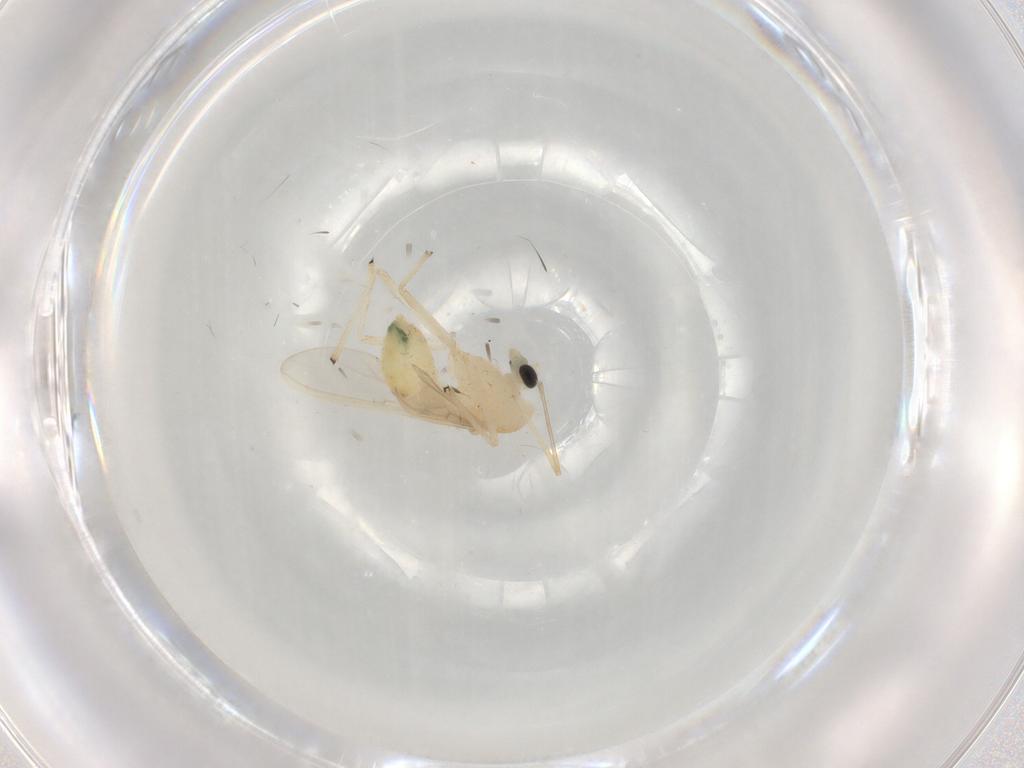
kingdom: Animalia
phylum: Arthropoda
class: Insecta
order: Diptera
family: Chironomidae
